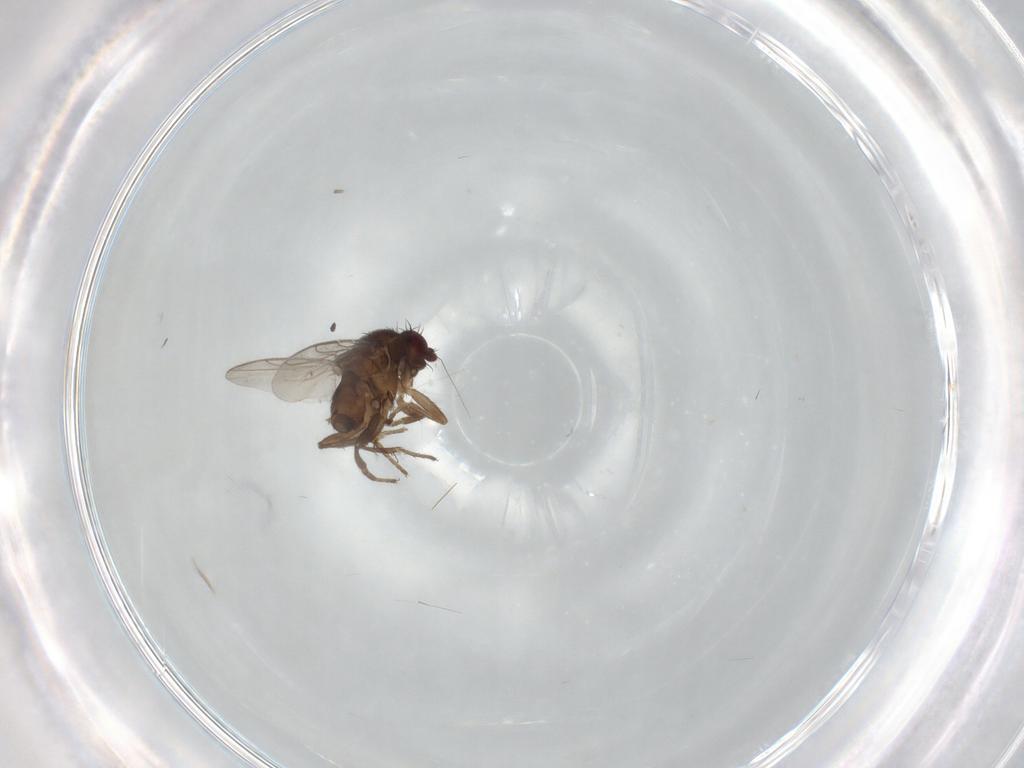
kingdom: Animalia
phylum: Arthropoda
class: Insecta
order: Diptera
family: Sphaeroceridae
